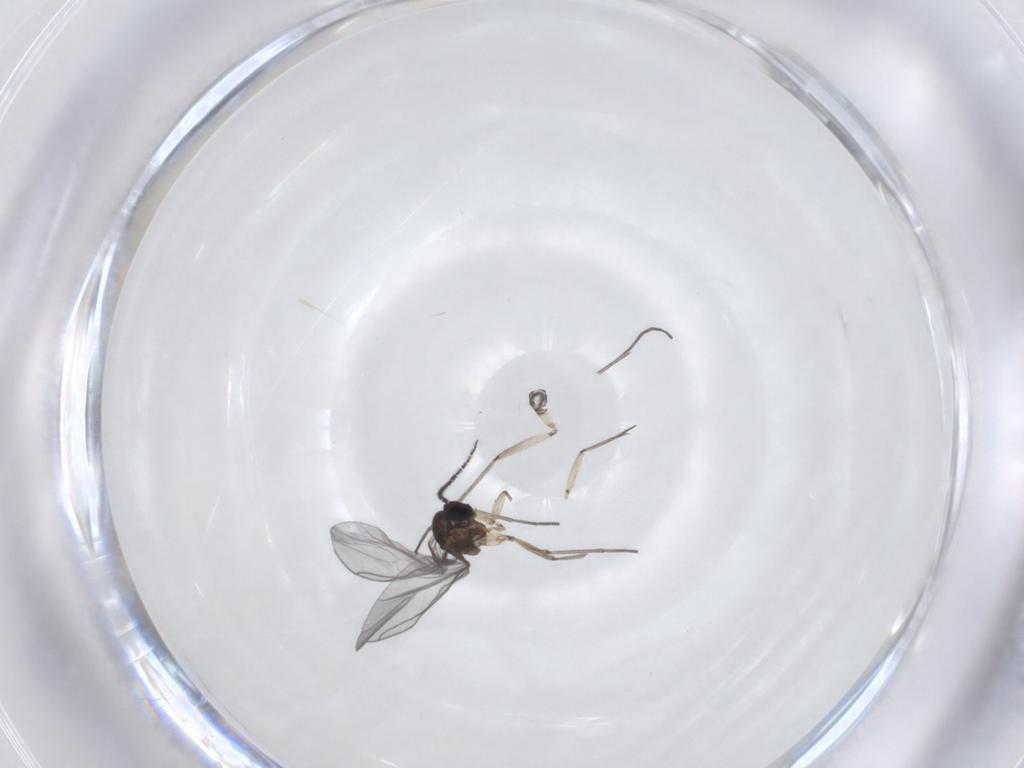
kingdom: Animalia
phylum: Arthropoda
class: Insecta
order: Diptera
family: Sciaridae
